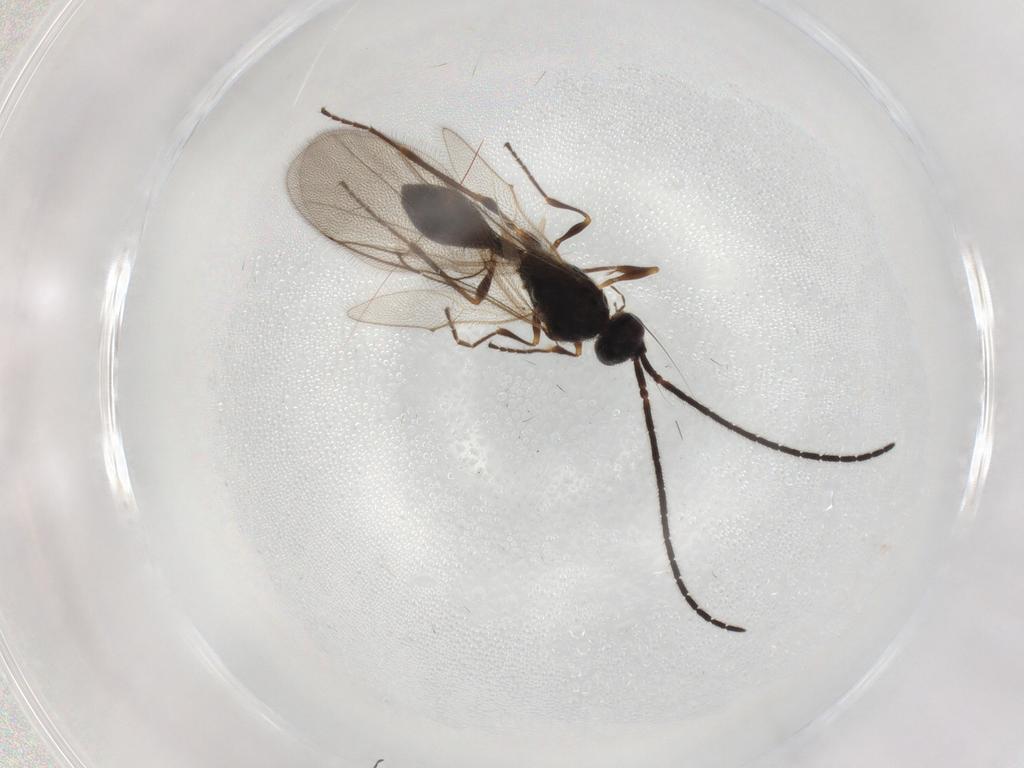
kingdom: Animalia
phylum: Arthropoda
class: Insecta
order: Hymenoptera
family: Diapriidae
